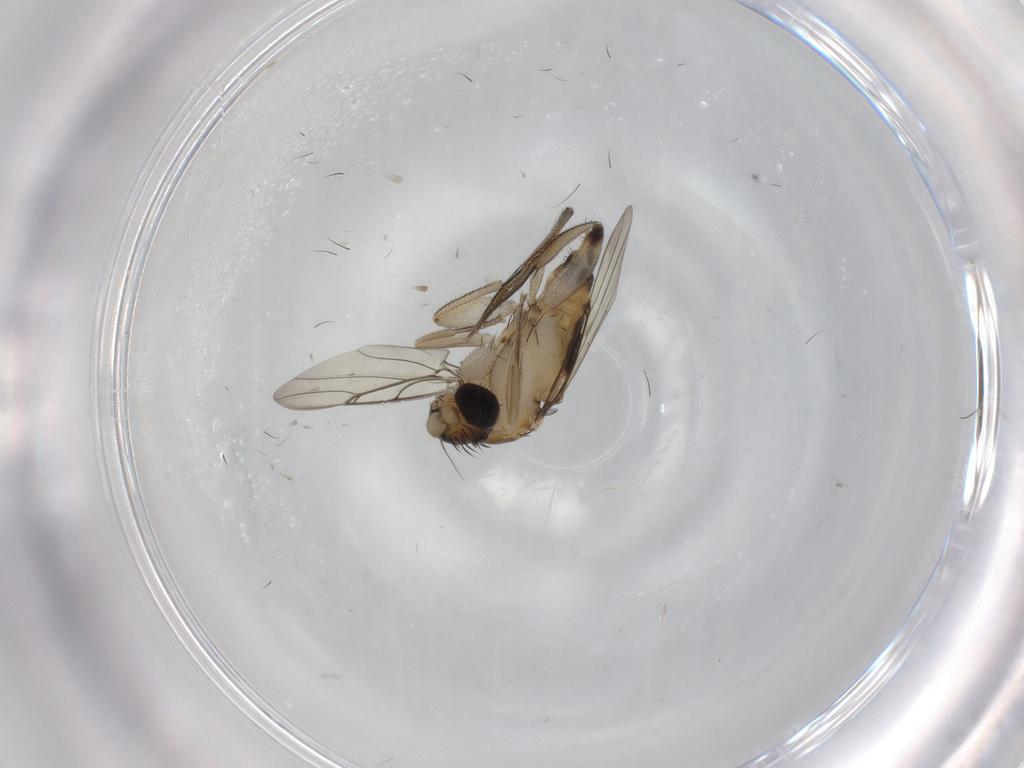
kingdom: Animalia
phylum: Arthropoda
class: Insecta
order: Diptera
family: Phoridae
